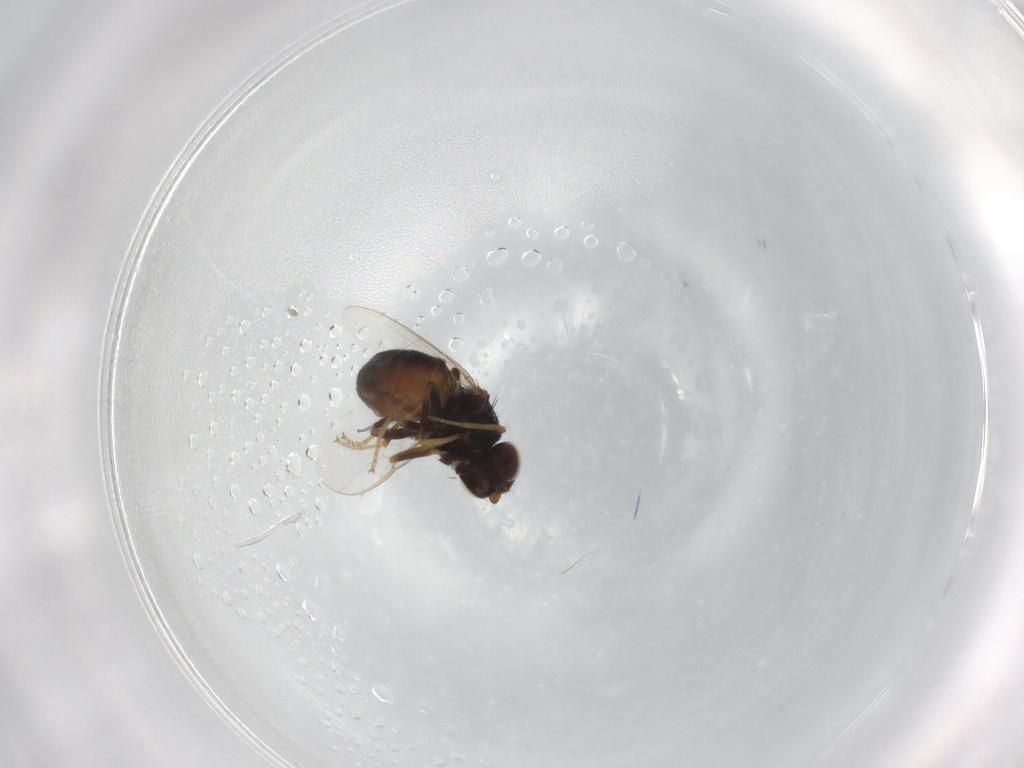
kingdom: Animalia
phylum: Arthropoda
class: Insecta
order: Diptera
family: Chloropidae
